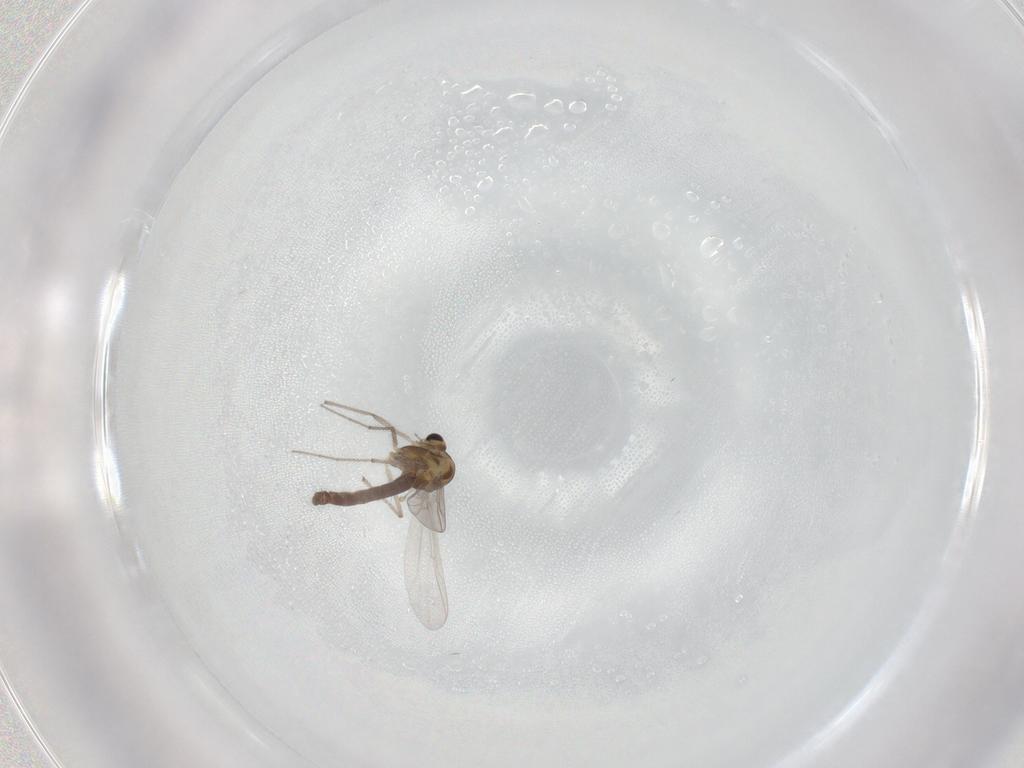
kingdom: Animalia
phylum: Arthropoda
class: Insecta
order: Diptera
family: Chironomidae
